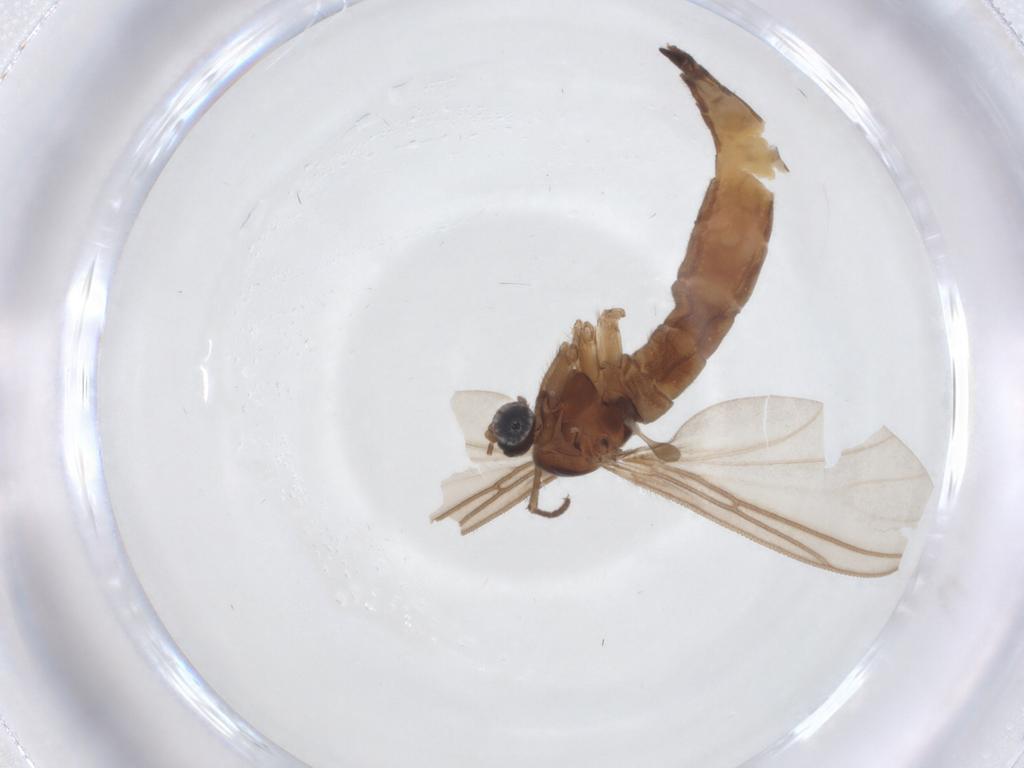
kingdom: Animalia
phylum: Arthropoda
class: Insecta
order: Diptera
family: Sciaridae
